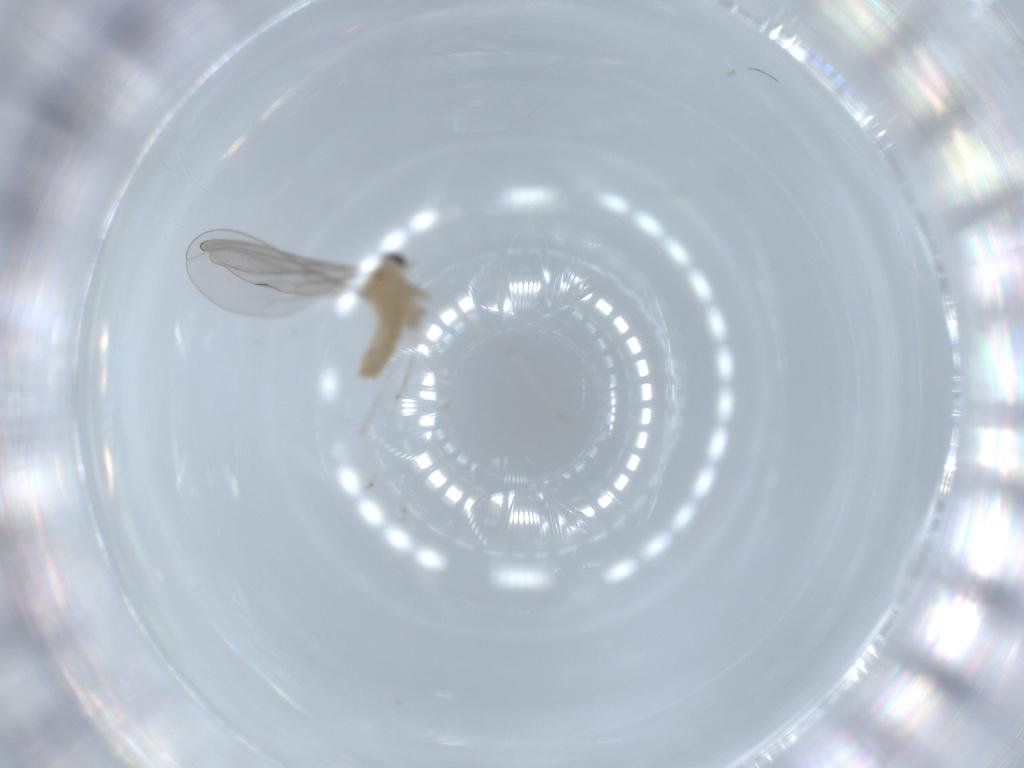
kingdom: Animalia
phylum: Arthropoda
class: Insecta
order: Diptera
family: Cecidomyiidae
